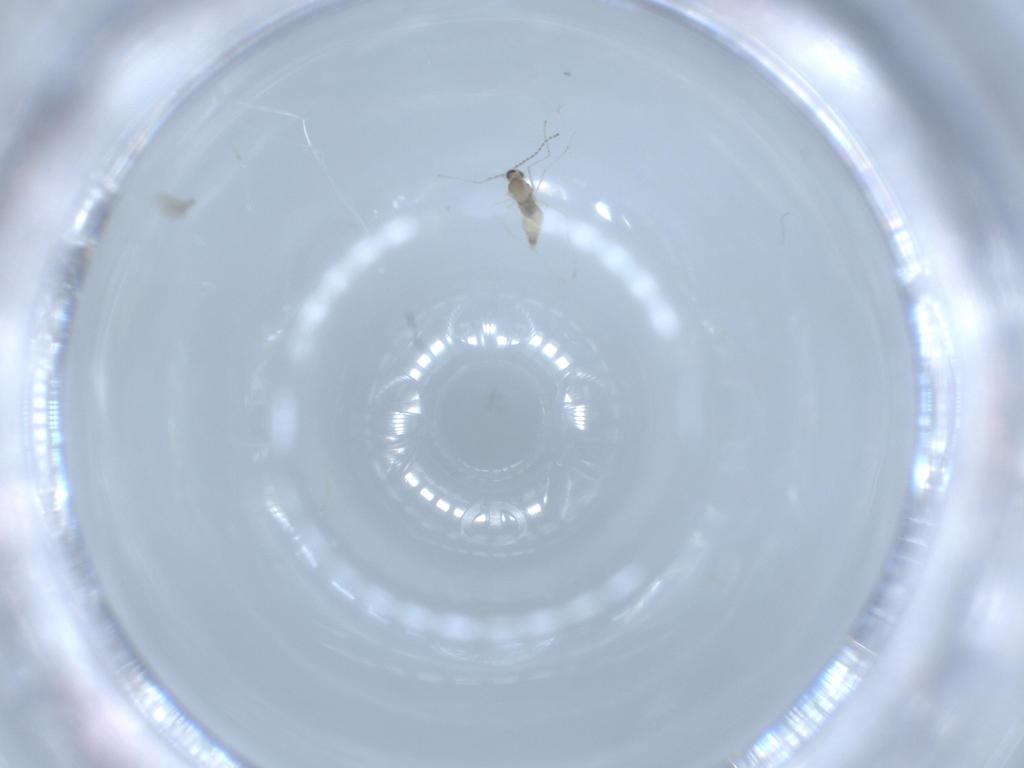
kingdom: Animalia
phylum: Arthropoda
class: Insecta
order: Diptera
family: Cecidomyiidae
